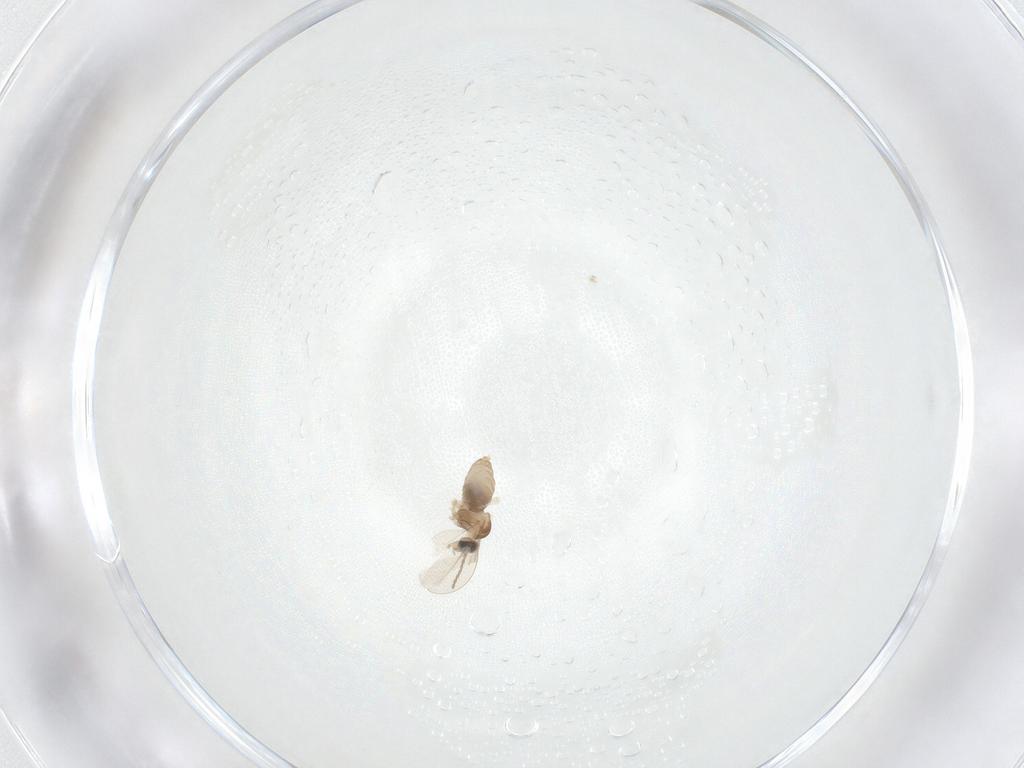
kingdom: Animalia
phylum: Arthropoda
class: Insecta
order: Diptera
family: Cecidomyiidae
